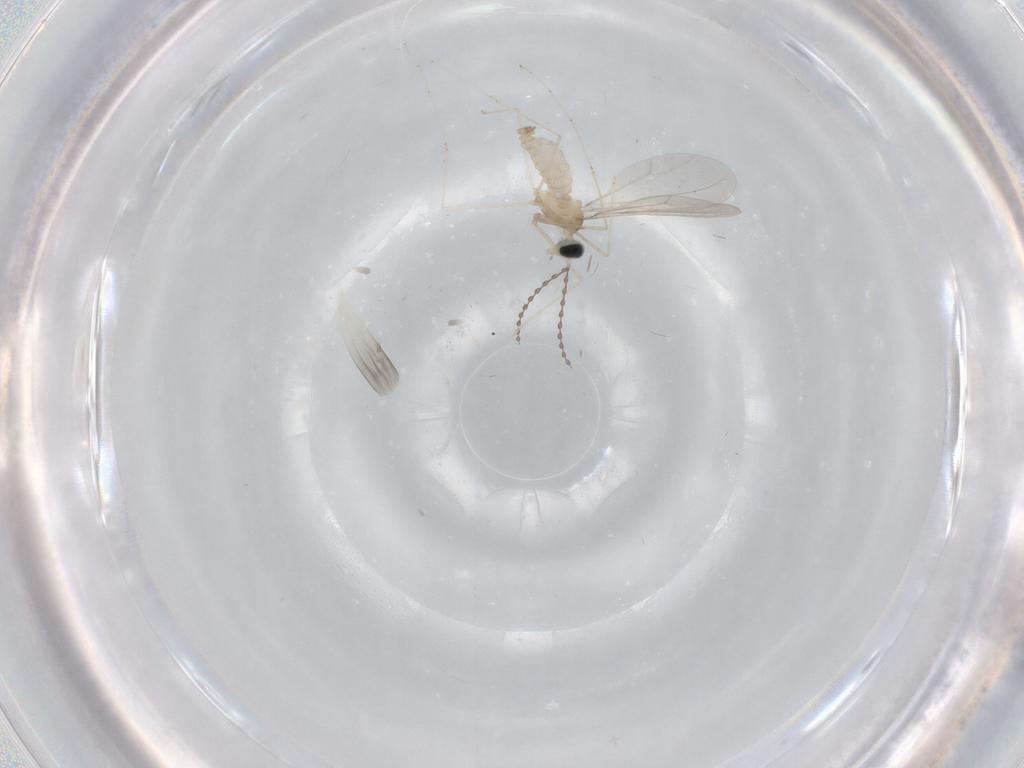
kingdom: Animalia
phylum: Arthropoda
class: Insecta
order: Diptera
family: Cecidomyiidae
